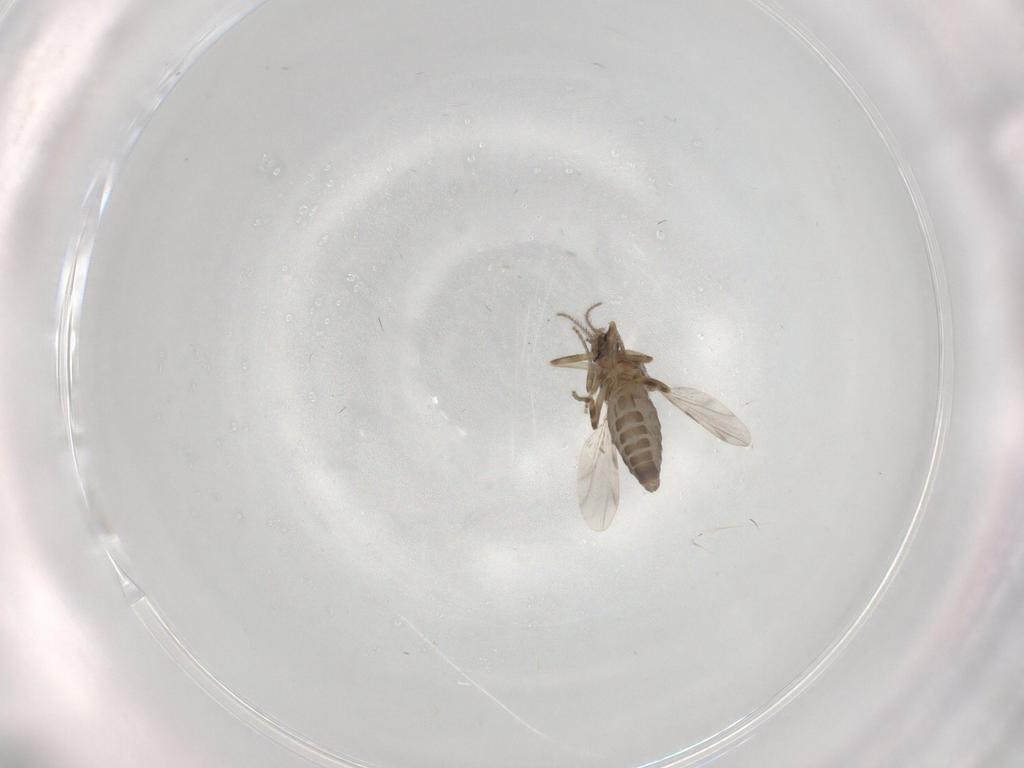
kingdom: Animalia
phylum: Arthropoda
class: Insecta
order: Diptera
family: Ceratopogonidae
